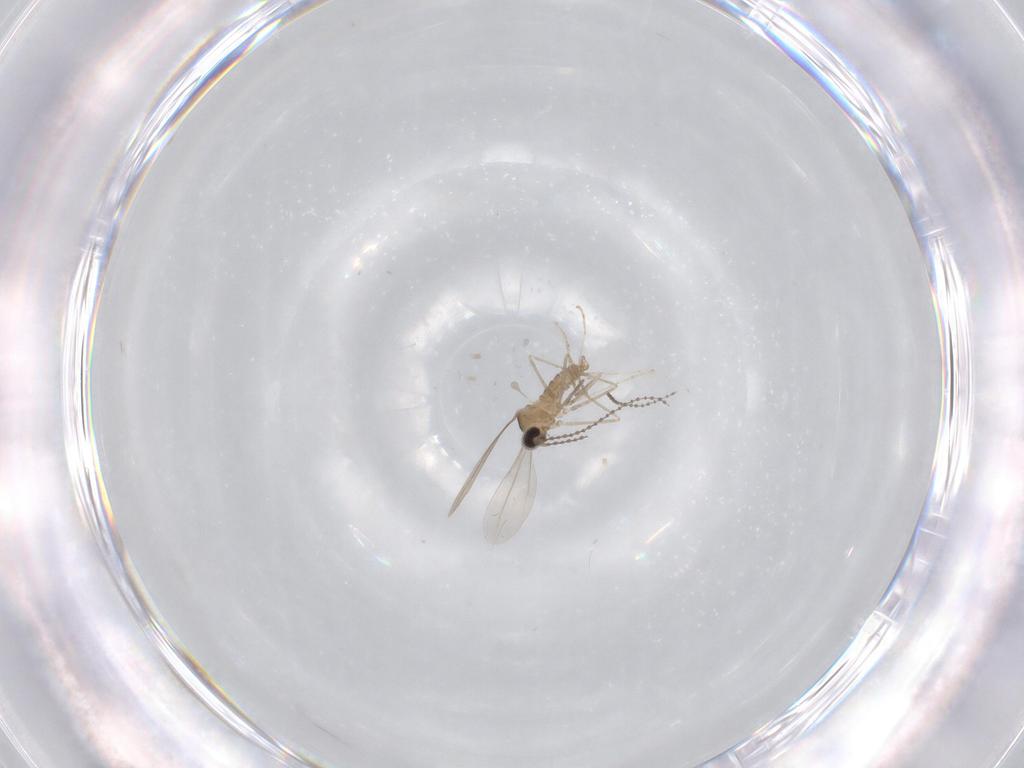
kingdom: Animalia
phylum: Arthropoda
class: Insecta
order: Diptera
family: Cecidomyiidae
